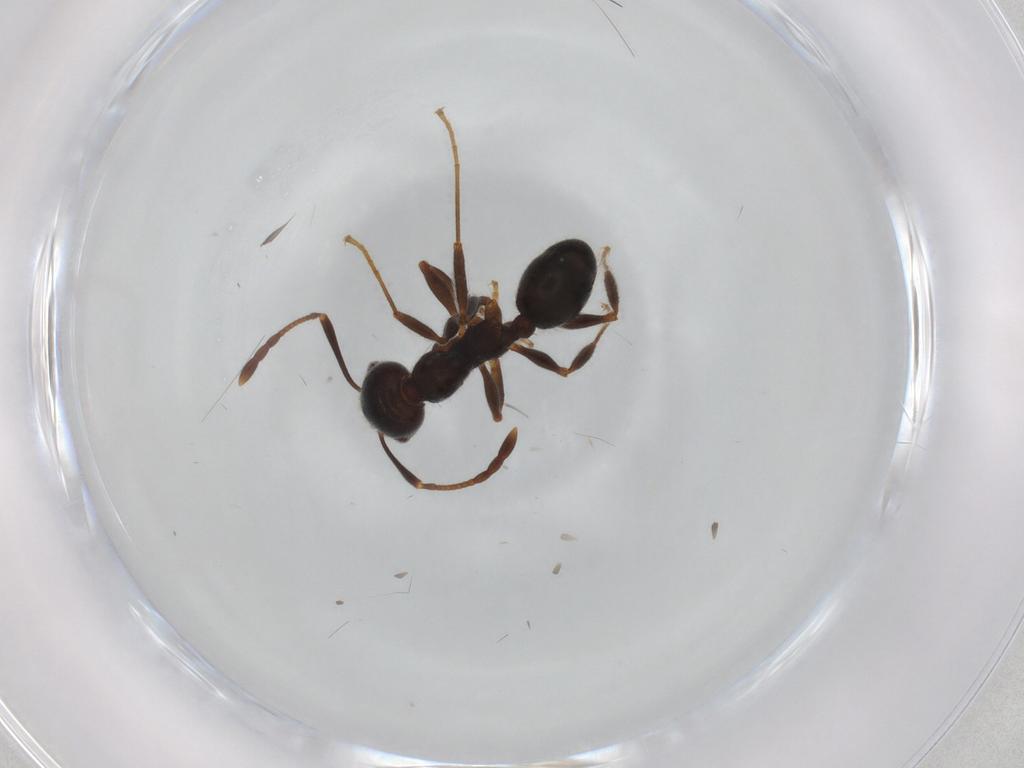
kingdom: Animalia
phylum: Arthropoda
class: Insecta
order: Hymenoptera
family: Formicidae
